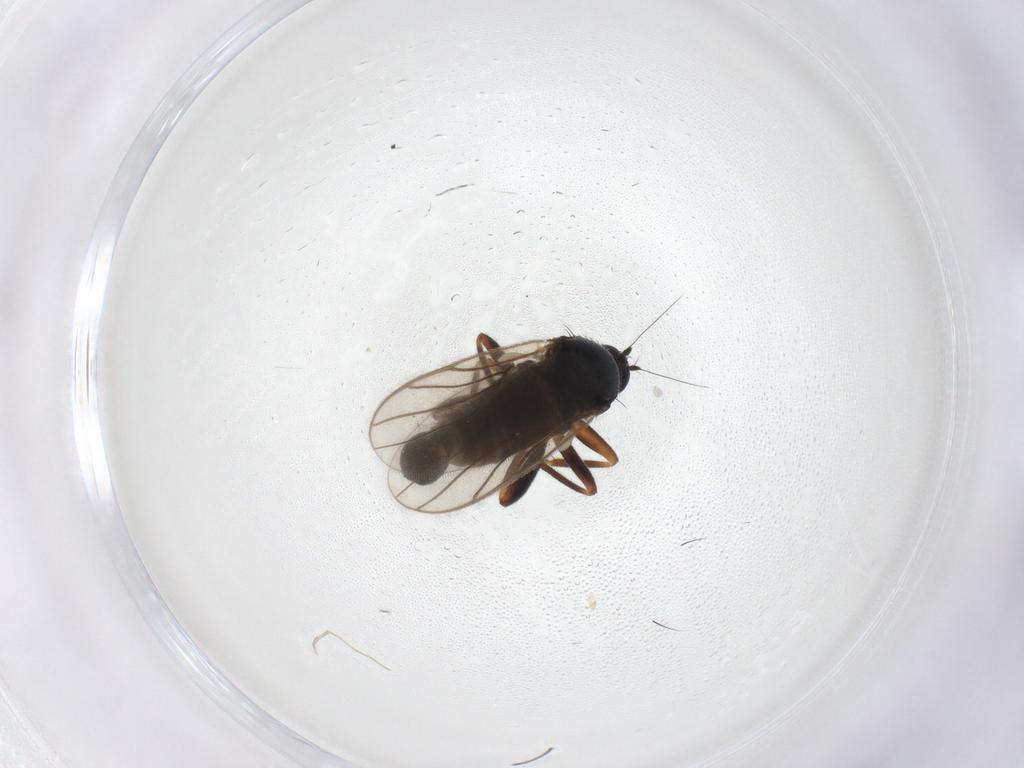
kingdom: Animalia
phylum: Arthropoda
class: Insecta
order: Diptera
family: Hybotidae
